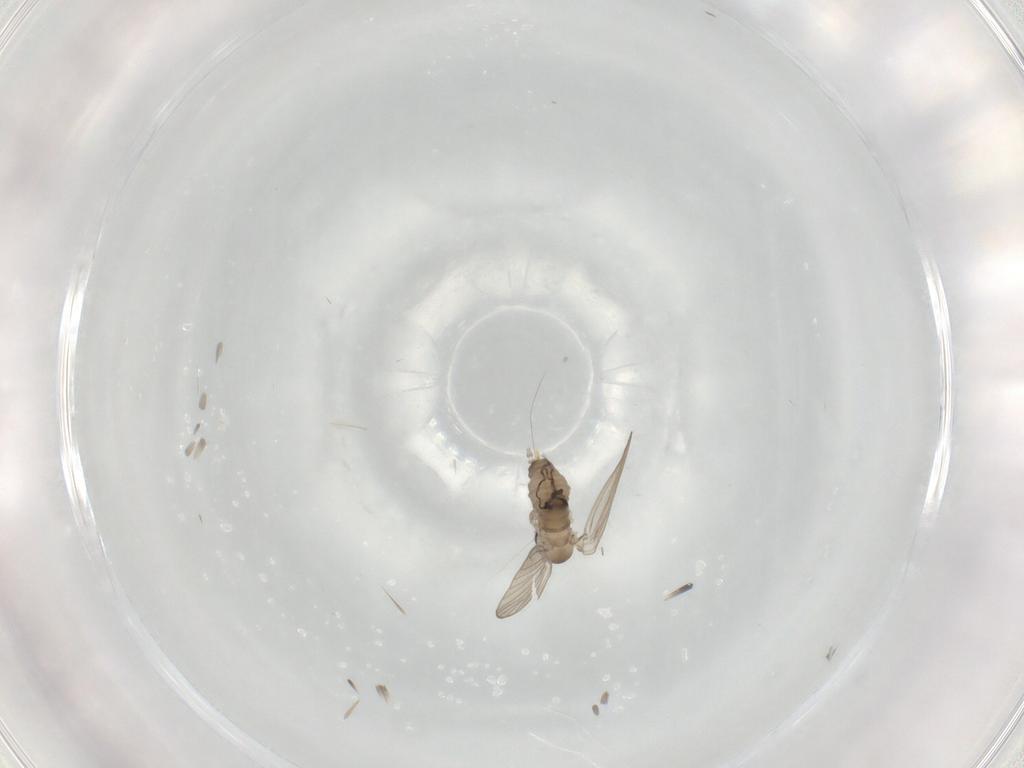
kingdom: Animalia
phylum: Arthropoda
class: Insecta
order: Diptera
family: Psychodidae
